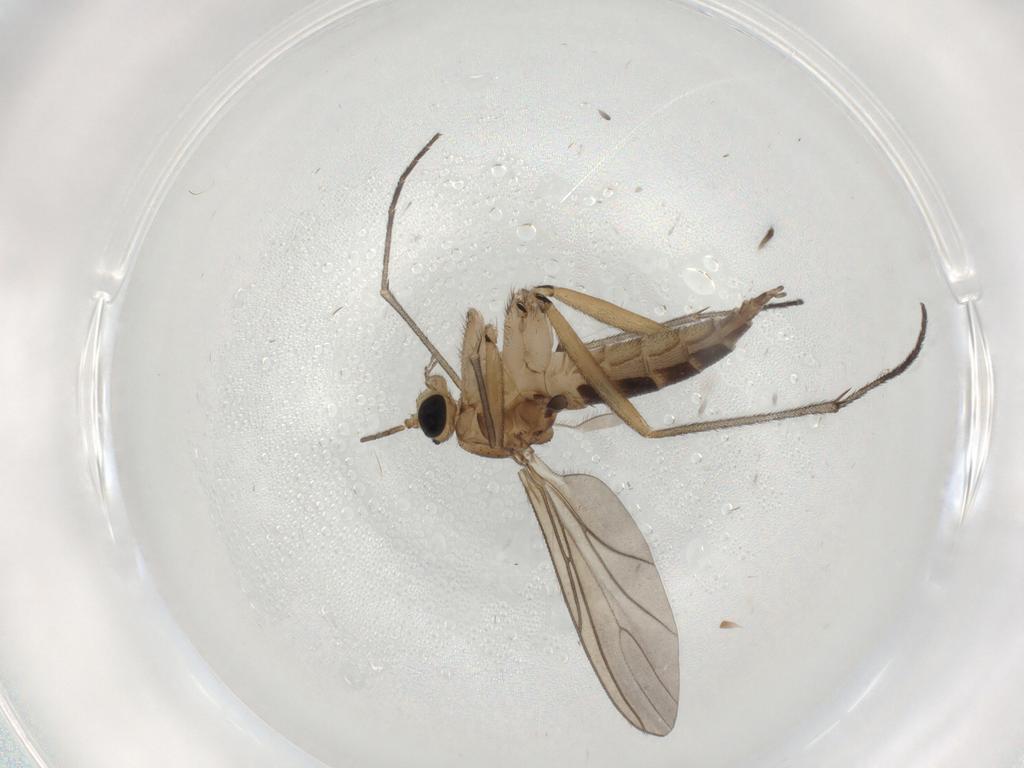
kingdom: Animalia
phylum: Arthropoda
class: Insecta
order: Diptera
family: Sciaridae
